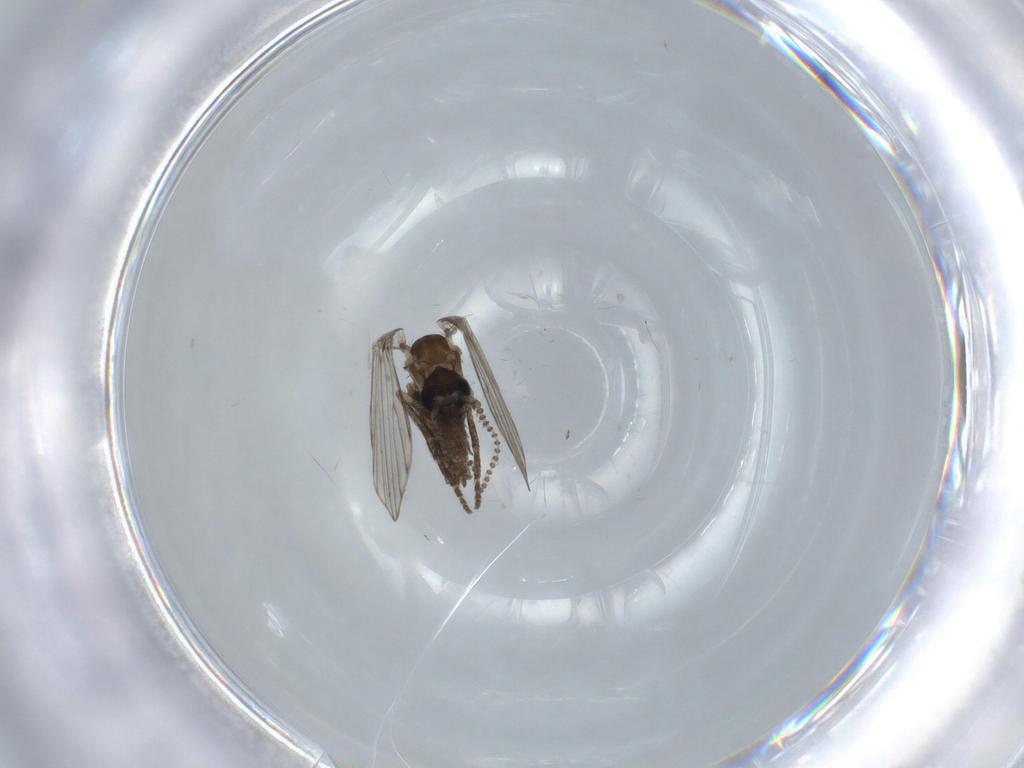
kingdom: Animalia
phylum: Arthropoda
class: Insecta
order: Diptera
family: Psychodidae
